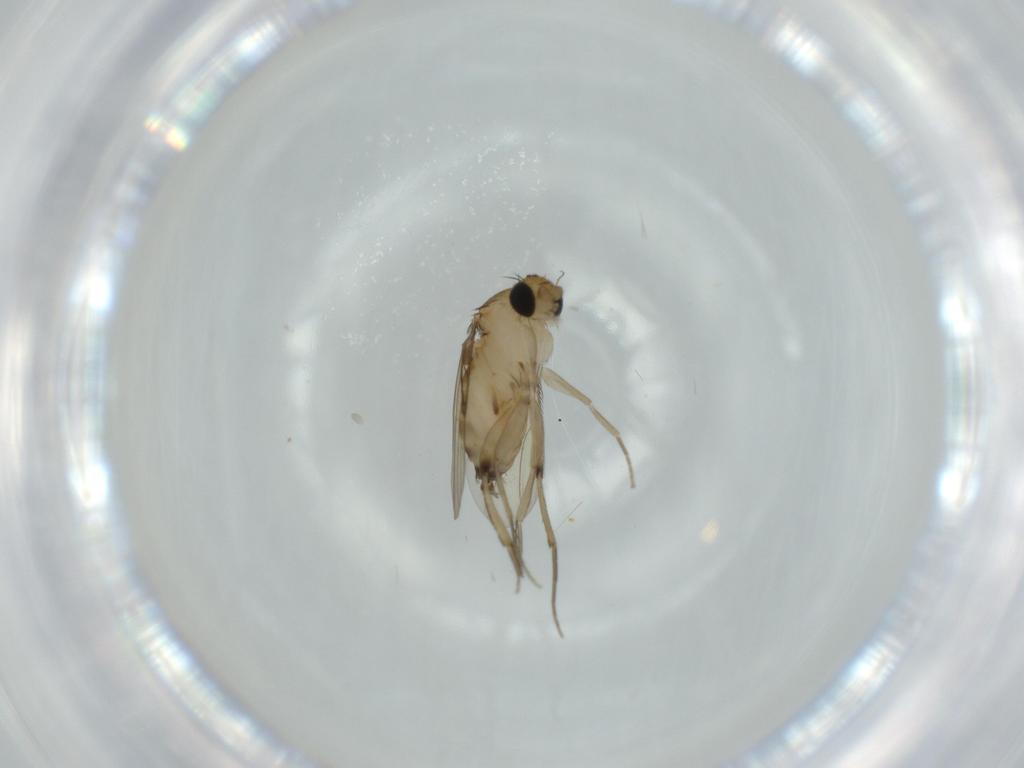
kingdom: Animalia
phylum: Arthropoda
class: Insecta
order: Diptera
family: Phoridae
